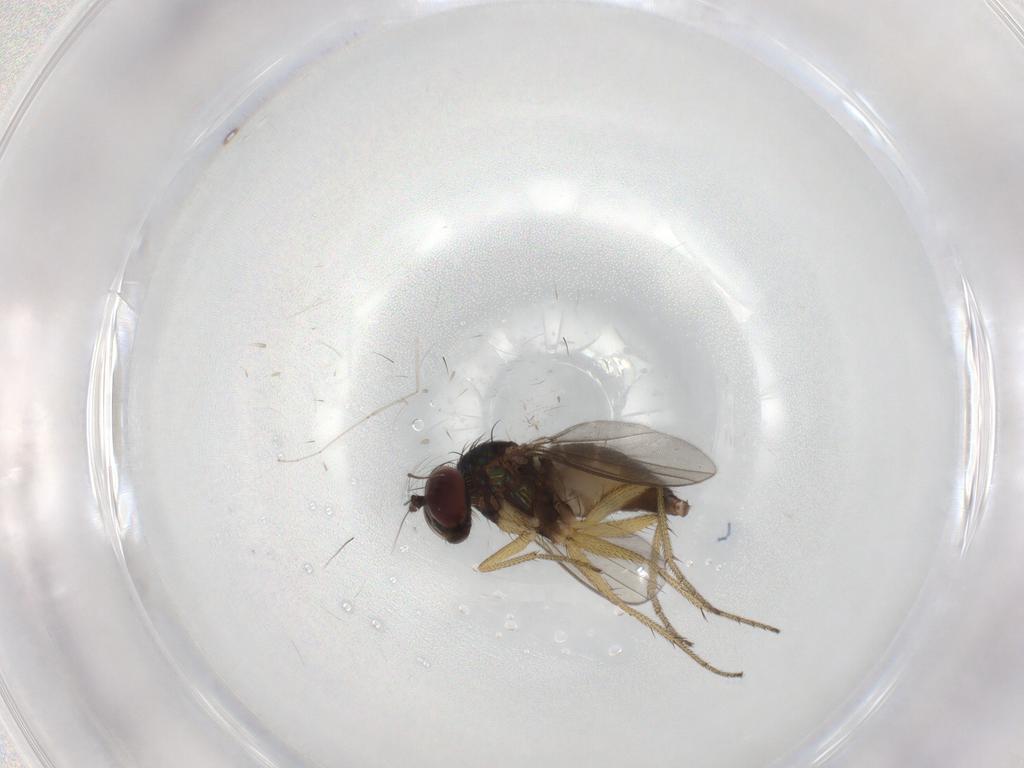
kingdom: Animalia
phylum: Arthropoda
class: Insecta
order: Diptera
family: Cecidomyiidae
